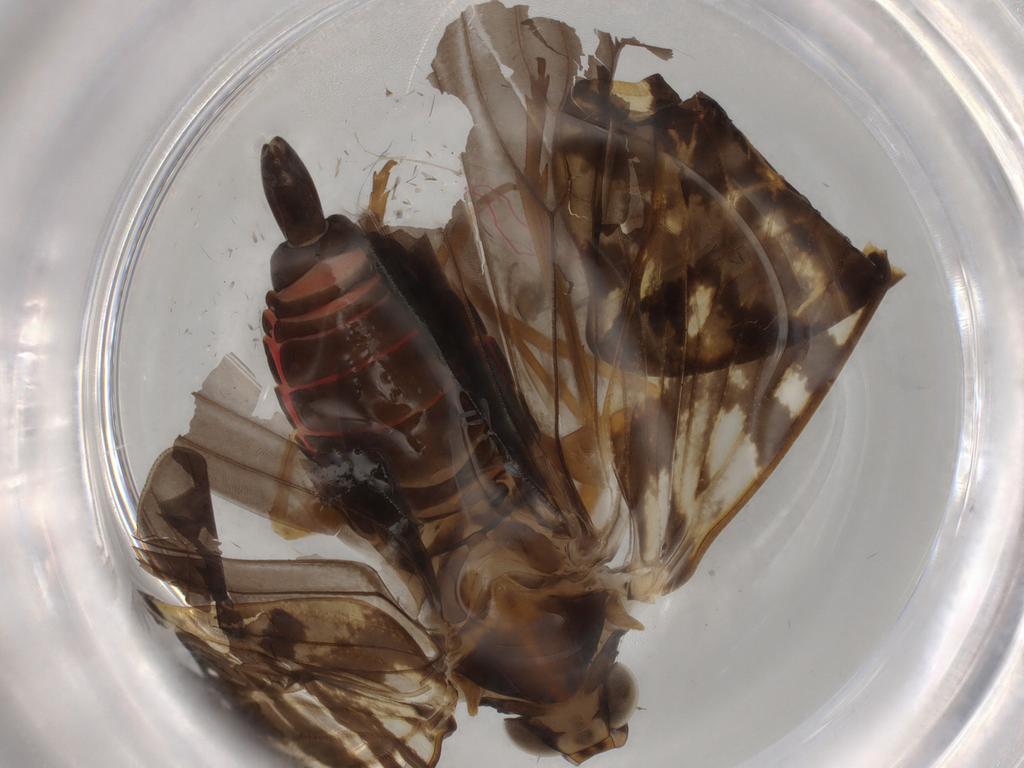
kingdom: Animalia
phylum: Arthropoda
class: Insecta
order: Hemiptera
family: Cixiidae
